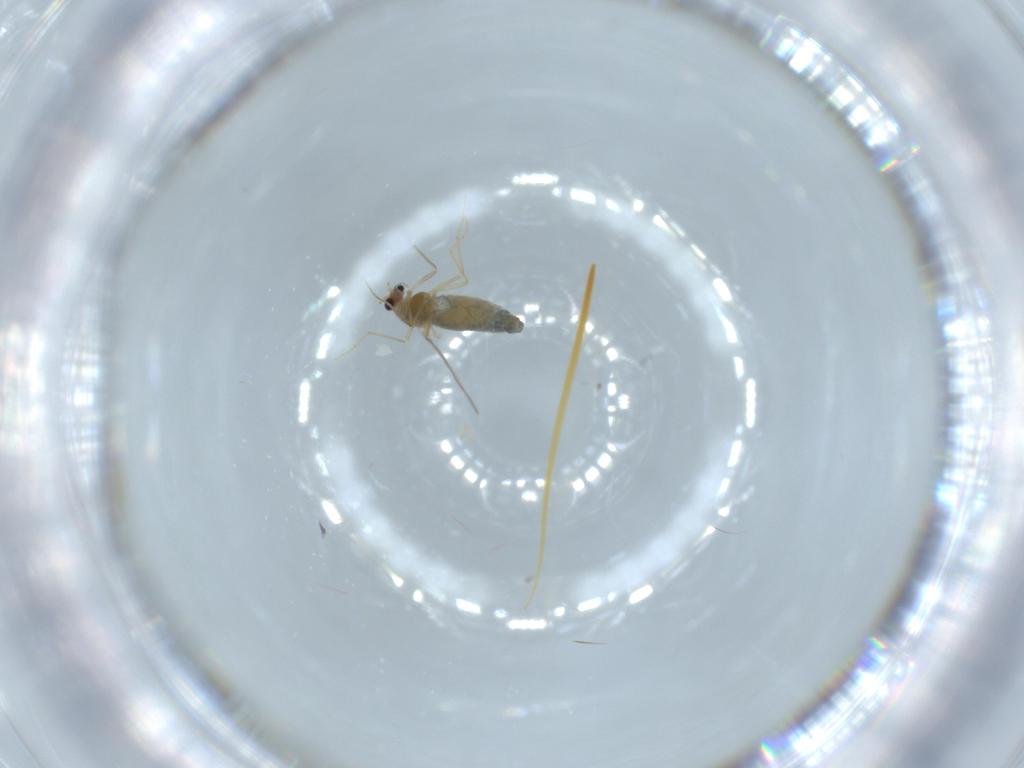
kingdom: Animalia
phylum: Arthropoda
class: Insecta
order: Diptera
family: Chironomidae
